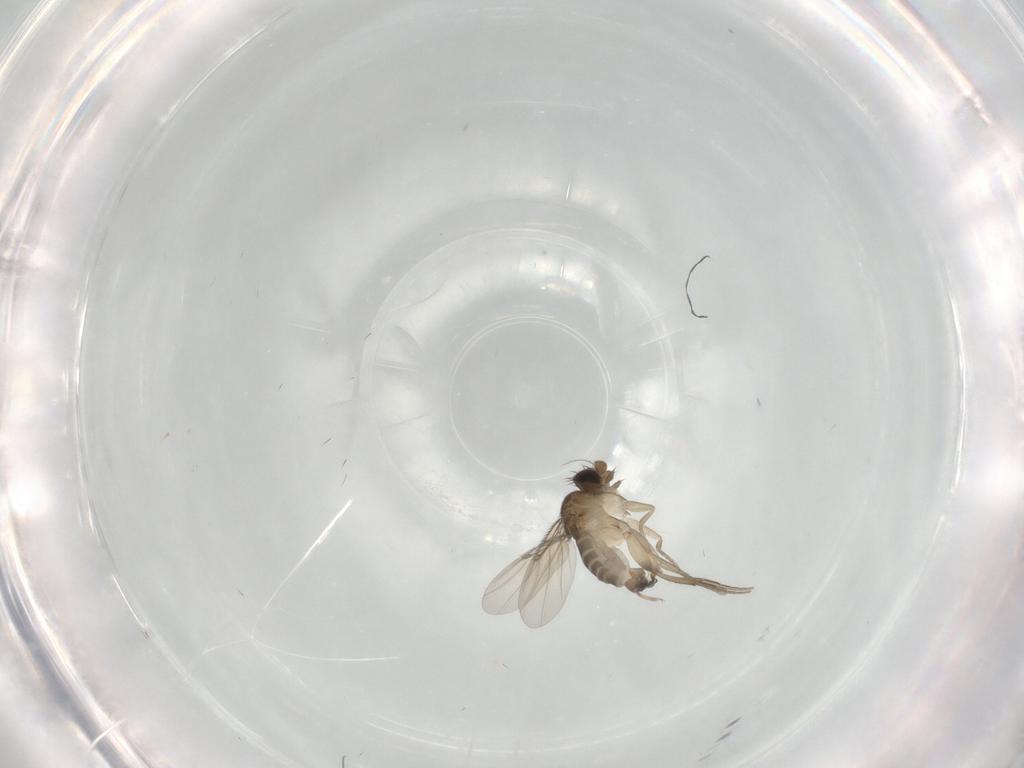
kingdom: Animalia
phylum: Arthropoda
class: Insecta
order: Diptera
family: Phoridae
